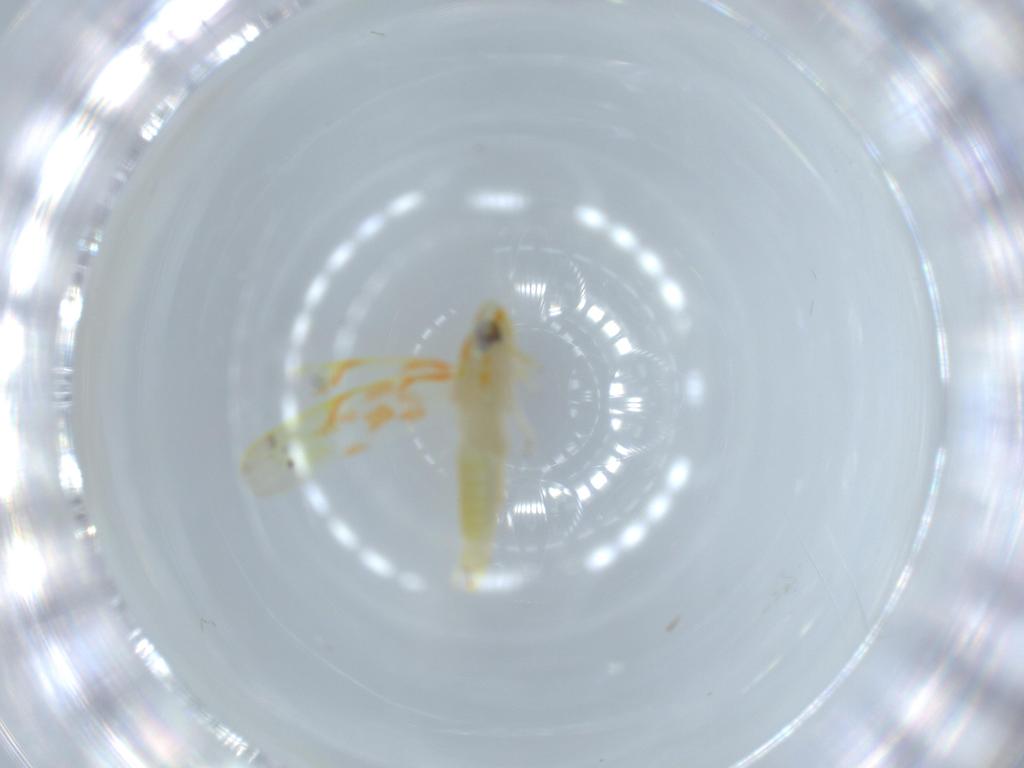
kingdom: Animalia
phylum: Arthropoda
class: Insecta
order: Hemiptera
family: Cicadellidae
